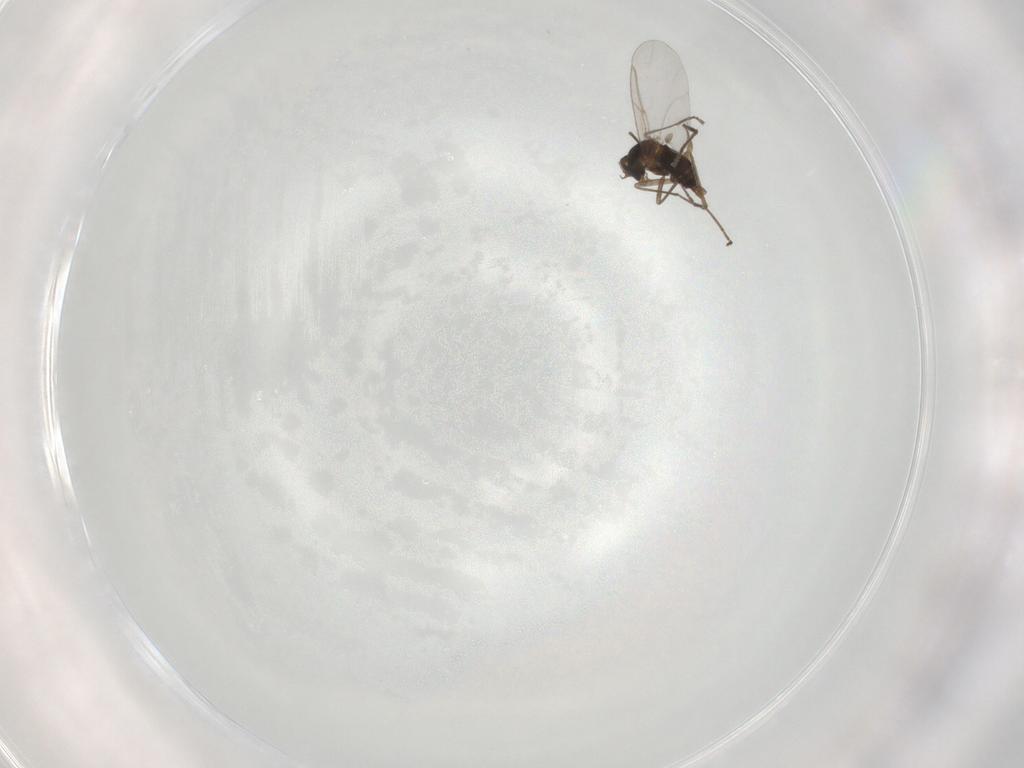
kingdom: Animalia
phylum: Arthropoda
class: Insecta
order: Diptera
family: Cecidomyiidae
